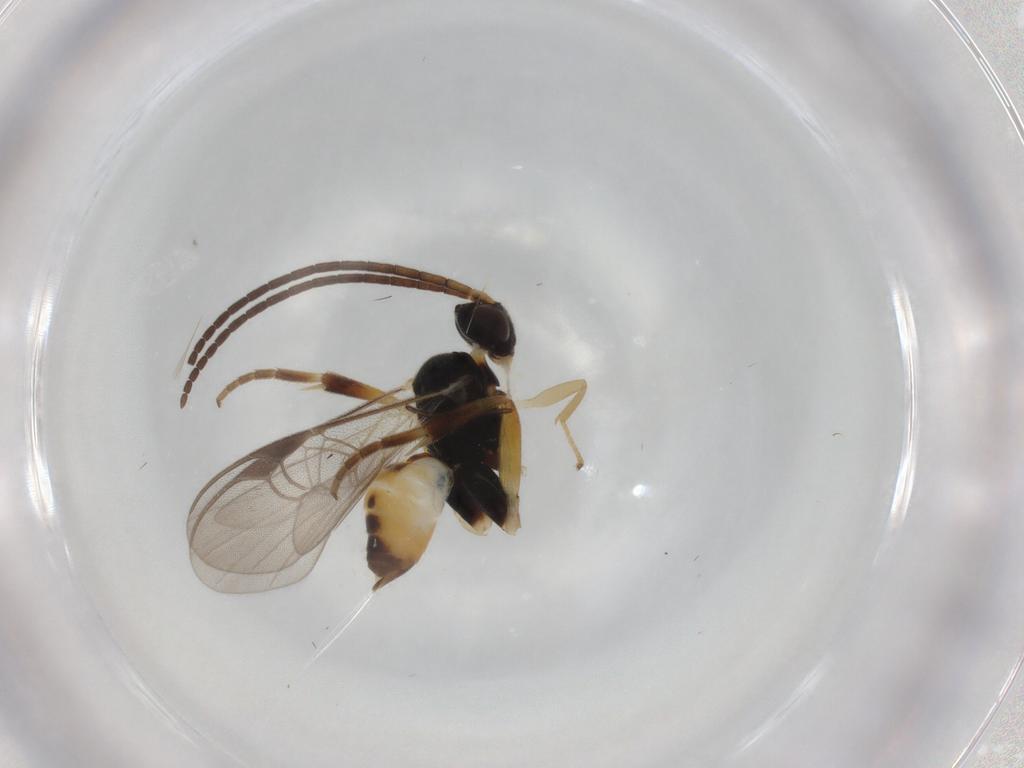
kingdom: Animalia
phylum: Arthropoda
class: Insecta
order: Hymenoptera
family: Braconidae
